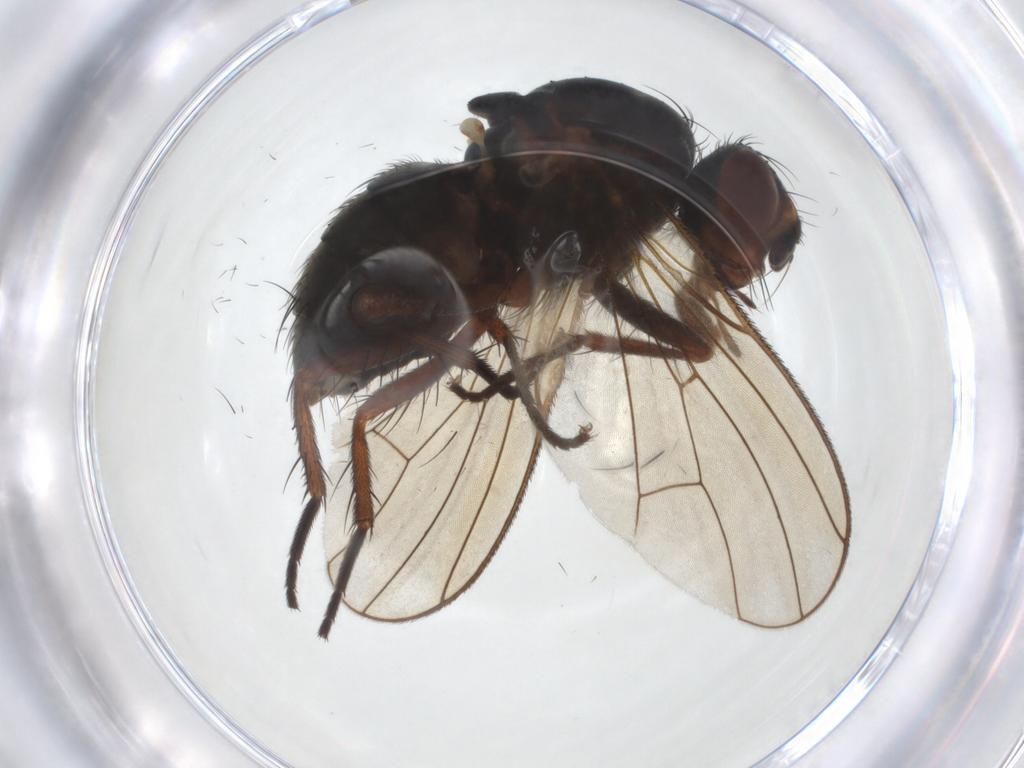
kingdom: Animalia
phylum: Arthropoda
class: Insecta
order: Diptera
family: Anthomyiidae
